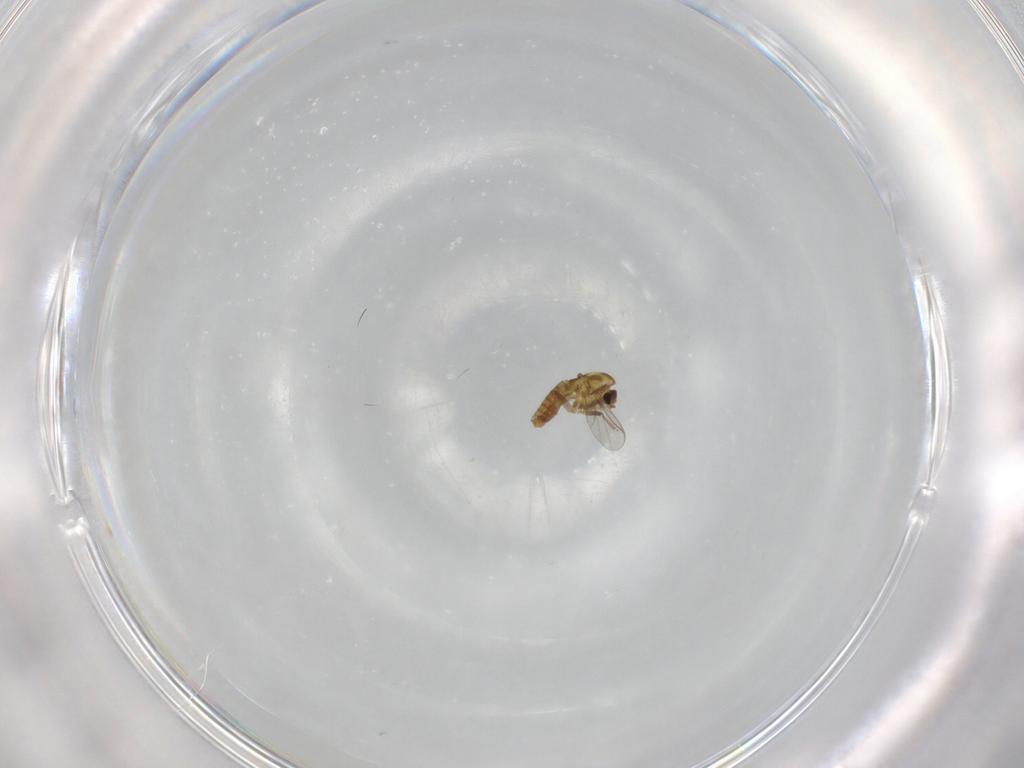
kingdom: Animalia
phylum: Arthropoda
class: Insecta
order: Diptera
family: Chironomidae
